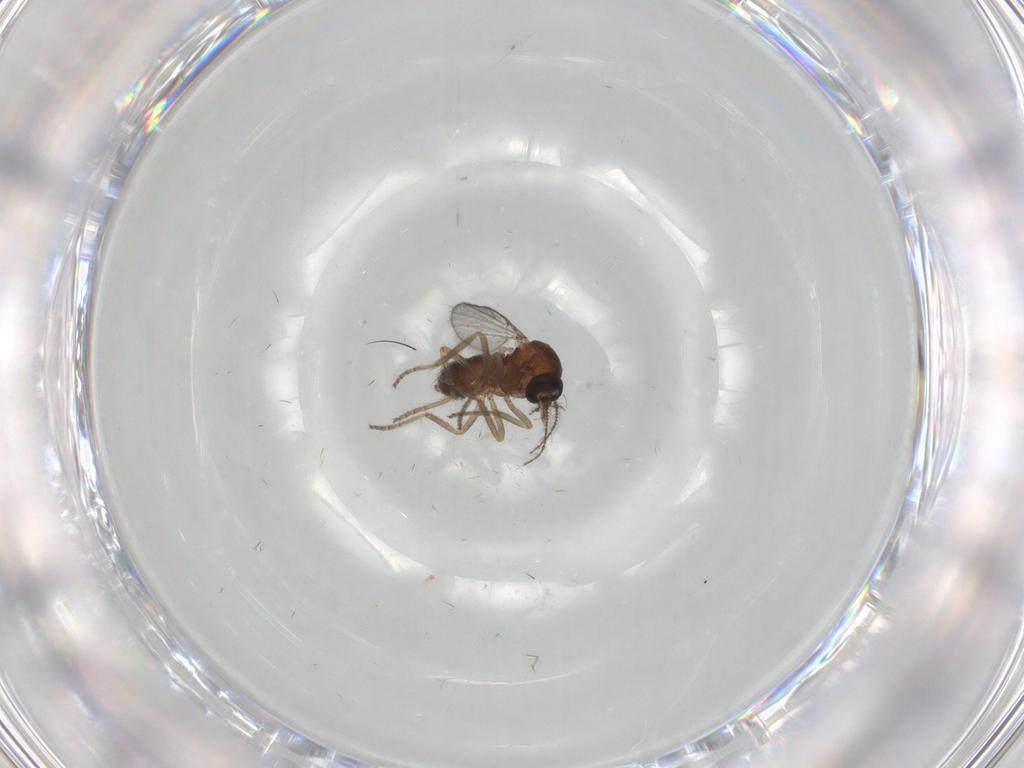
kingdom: Animalia
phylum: Arthropoda
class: Insecta
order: Diptera
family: Ceratopogonidae
